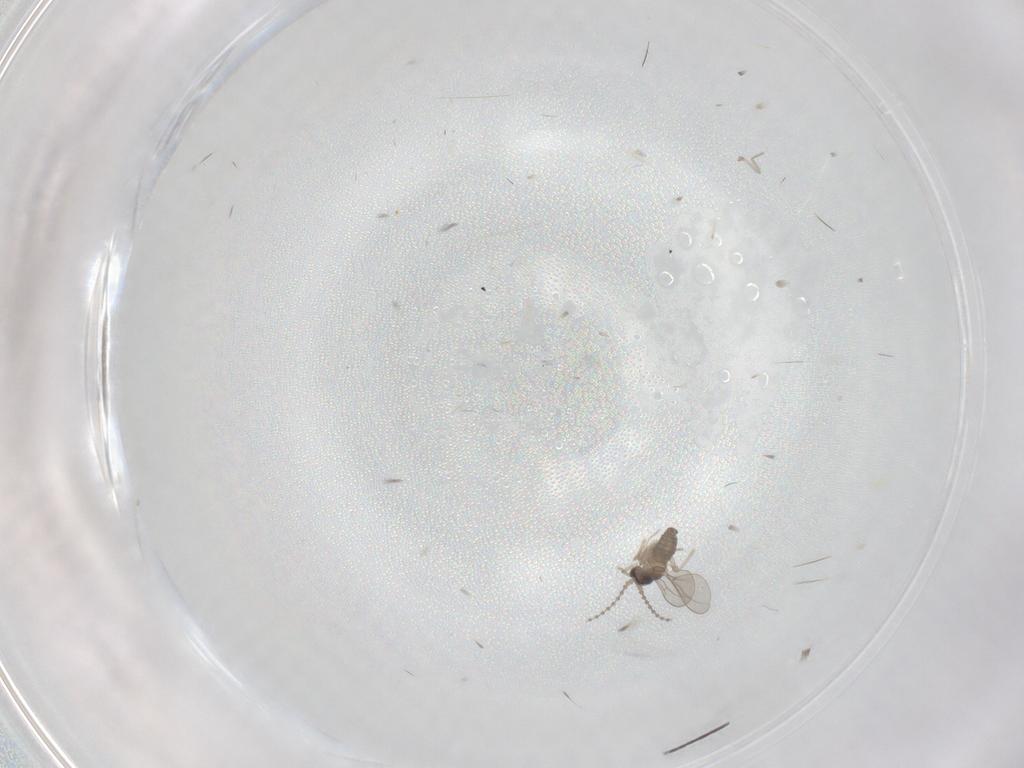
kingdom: Animalia
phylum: Arthropoda
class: Insecta
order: Diptera
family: Cecidomyiidae
